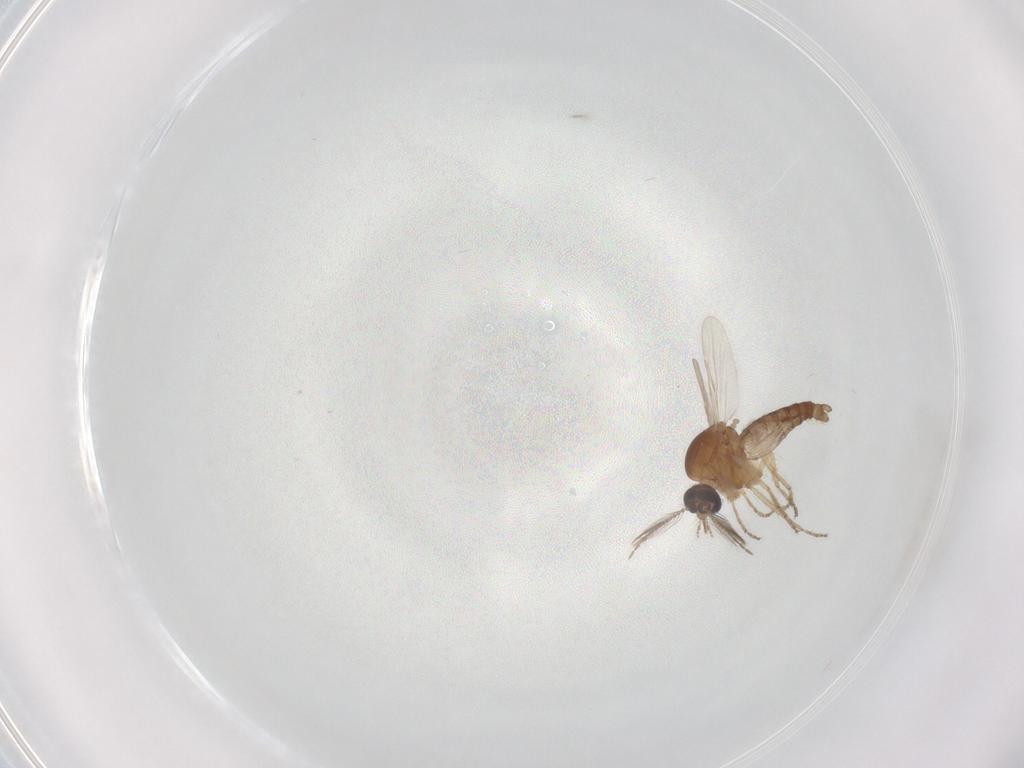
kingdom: Animalia
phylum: Arthropoda
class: Insecta
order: Diptera
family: Ceratopogonidae
